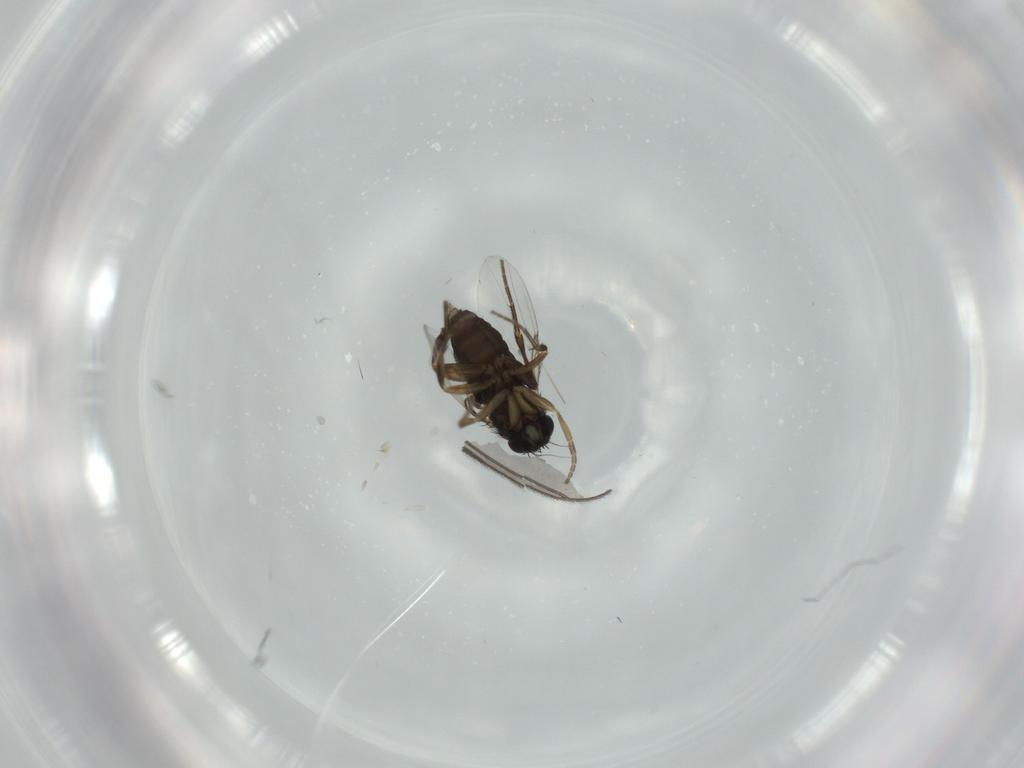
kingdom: Animalia
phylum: Arthropoda
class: Insecta
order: Diptera
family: Phoridae
